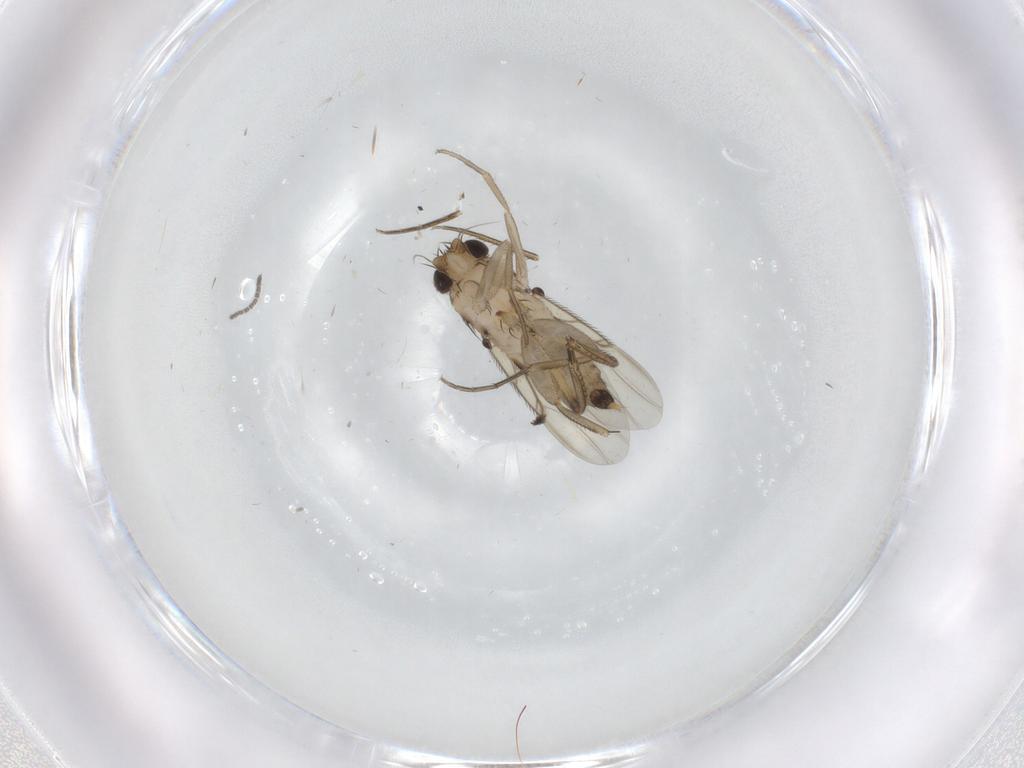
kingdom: Animalia
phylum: Arthropoda
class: Insecta
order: Diptera
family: Sciaridae
